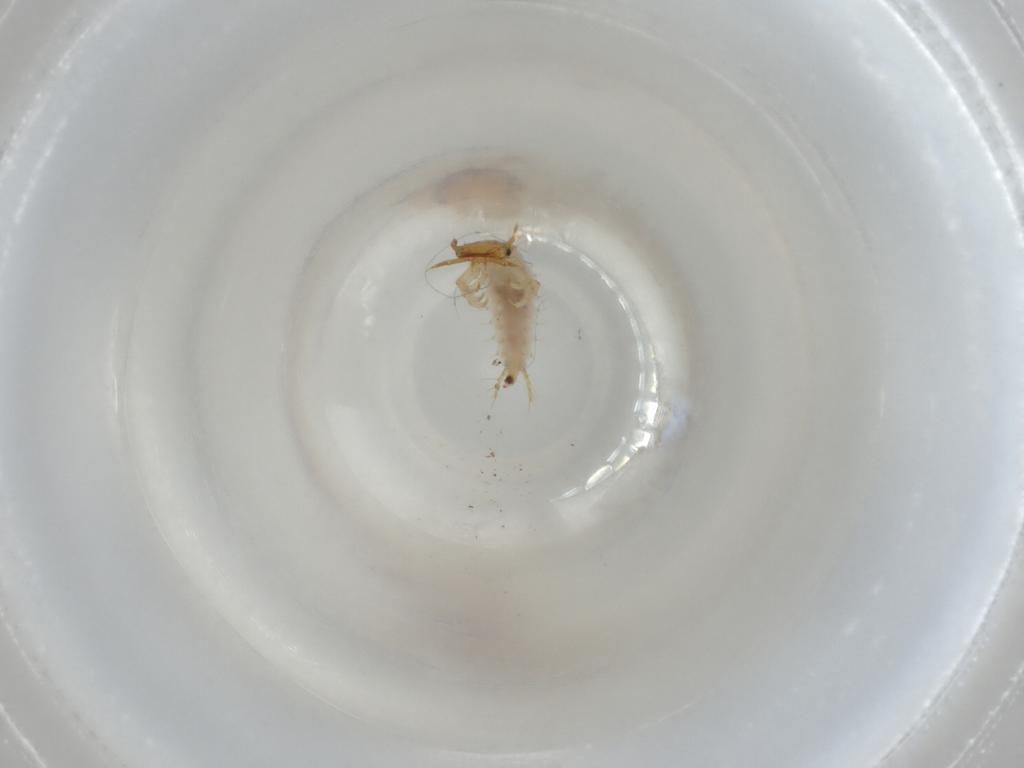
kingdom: Animalia
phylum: Arthropoda
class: Insecta
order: Coleoptera
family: Carabidae
